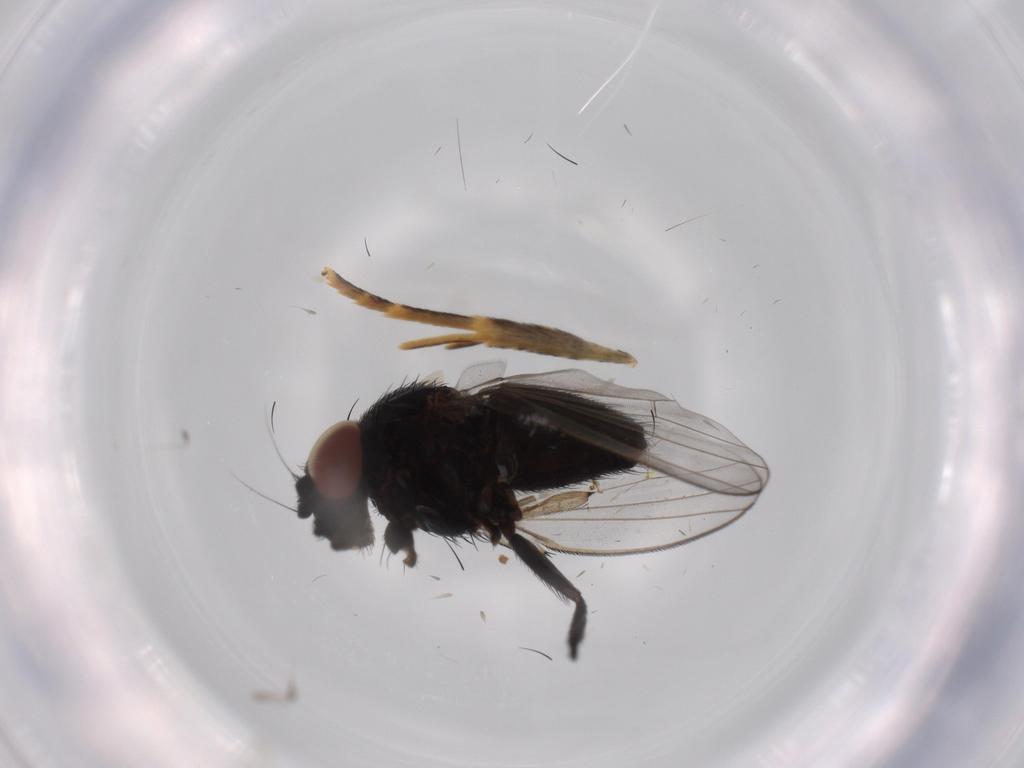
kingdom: Animalia
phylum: Arthropoda
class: Insecta
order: Diptera
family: Milichiidae
